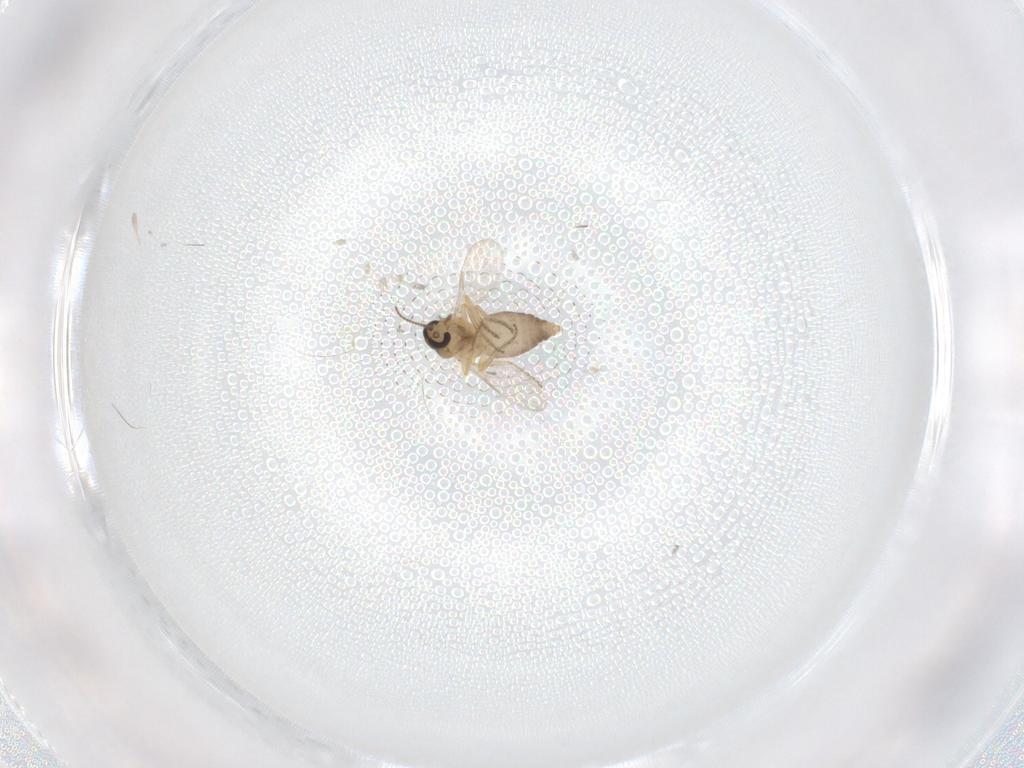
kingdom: Animalia
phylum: Arthropoda
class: Insecta
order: Diptera
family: Ceratopogonidae
